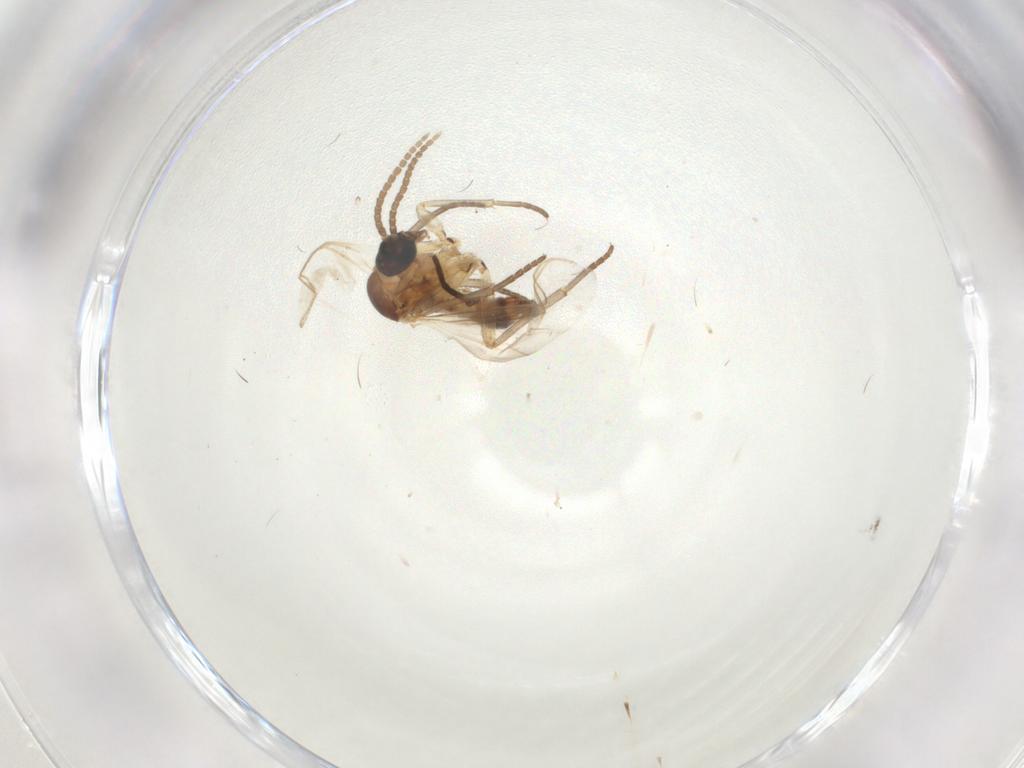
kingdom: Animalia
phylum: Arthropoda
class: Insecta
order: Diptera
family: Sciaridae
